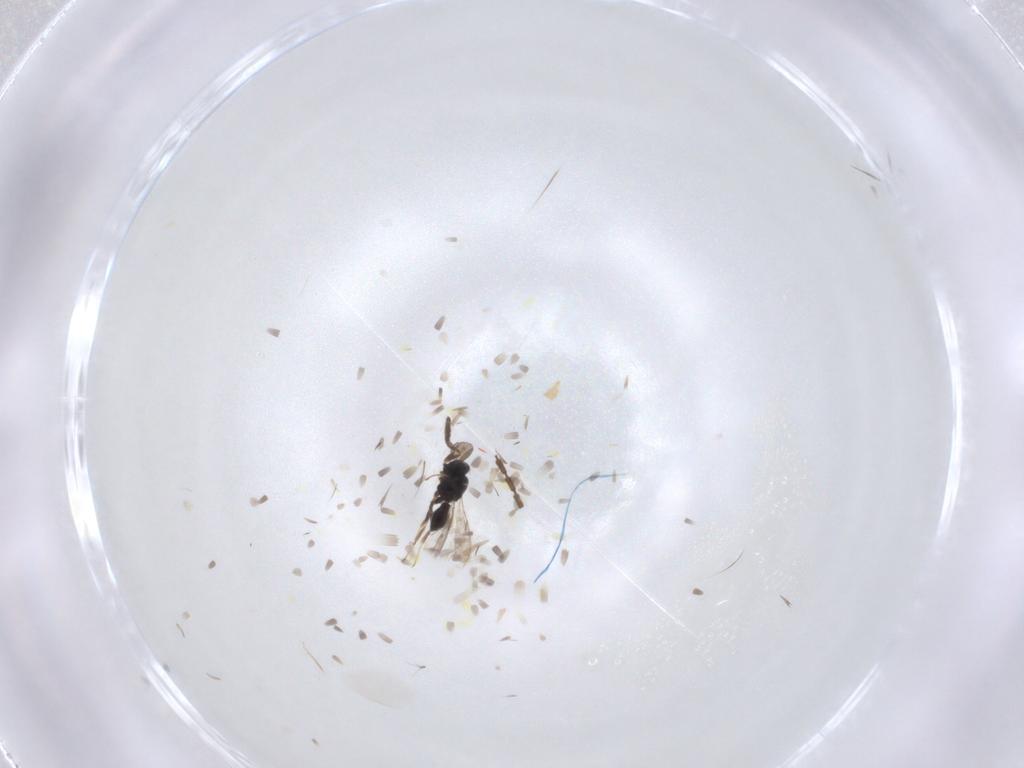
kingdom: Animalia
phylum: Arthropoda
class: Insecta
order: Hymenoptera
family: Scelionidae
